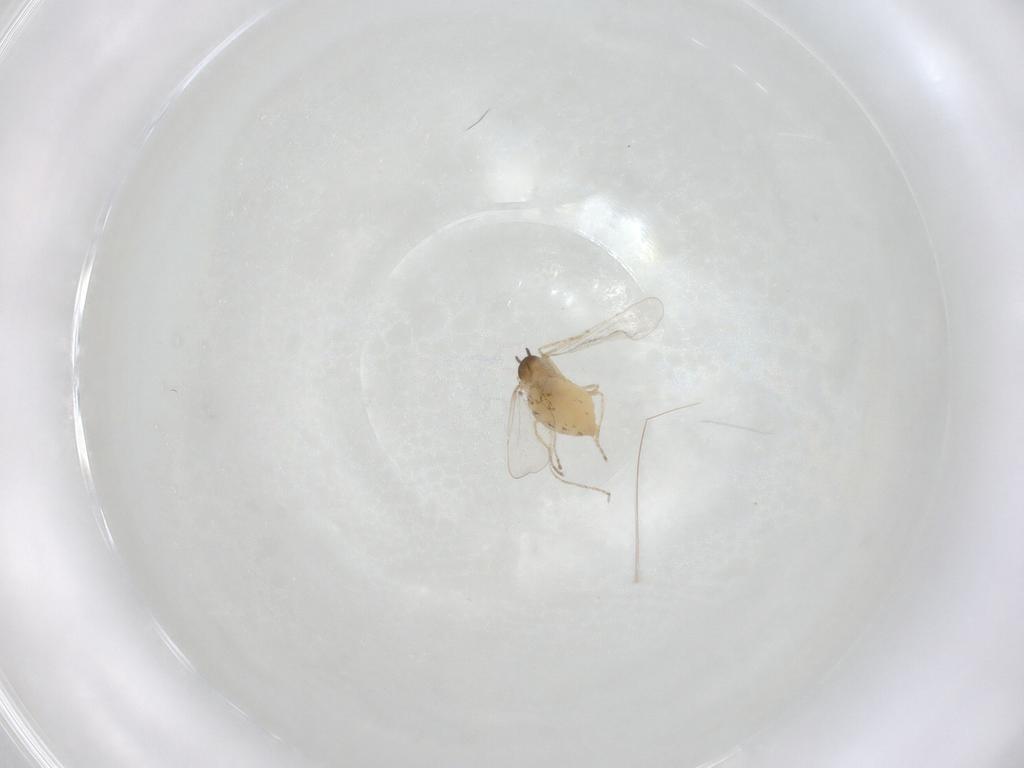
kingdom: Animalia
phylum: Arthropoda
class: Insecta
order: Diptera
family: Cecidomyiidae
